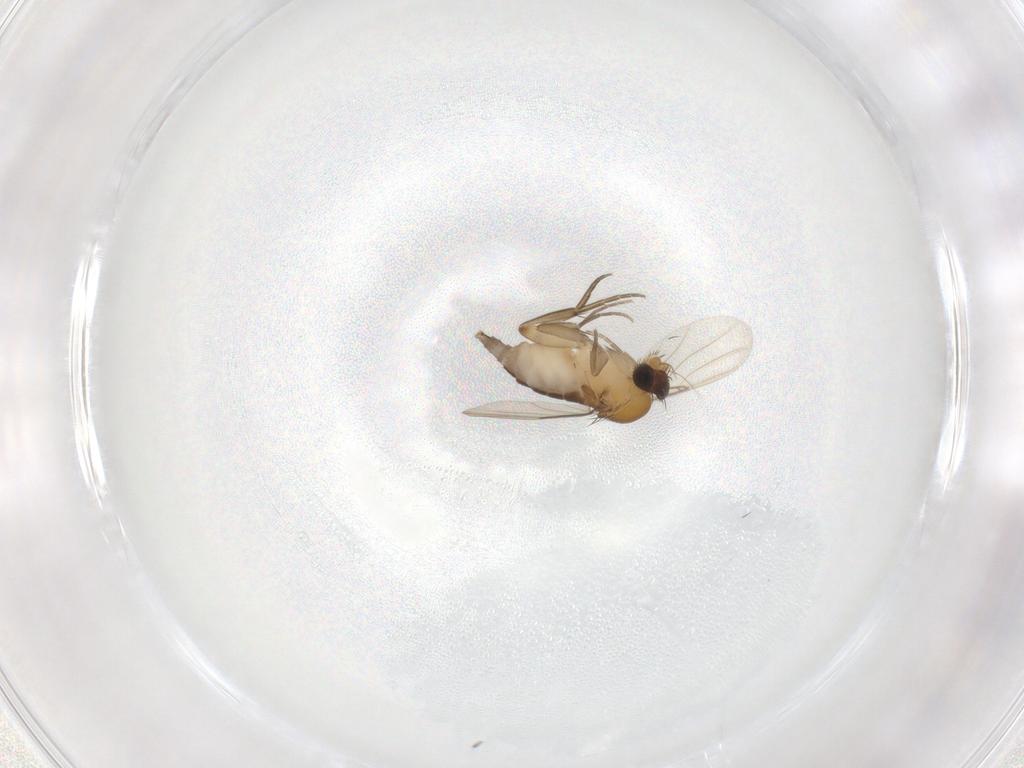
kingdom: Animalia
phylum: Arthropoda
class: Insecta
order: Diptera
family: Phoridae
